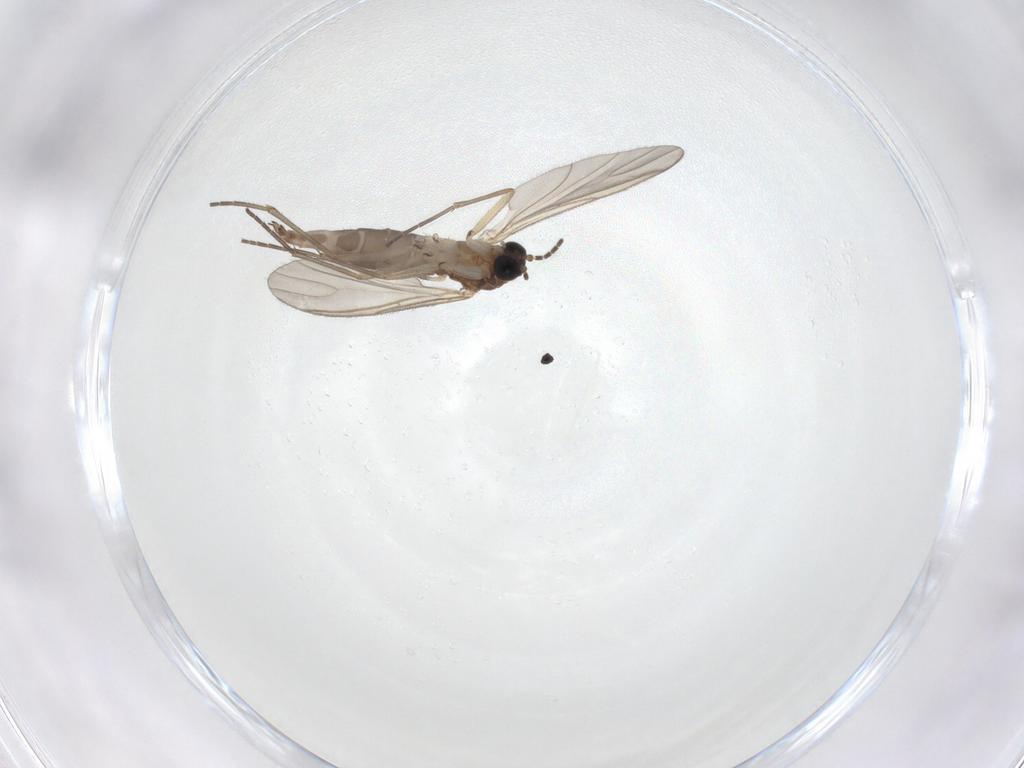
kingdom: Animalia
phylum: Arthropoda
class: Insecta
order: Diptera
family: Sciaridae
